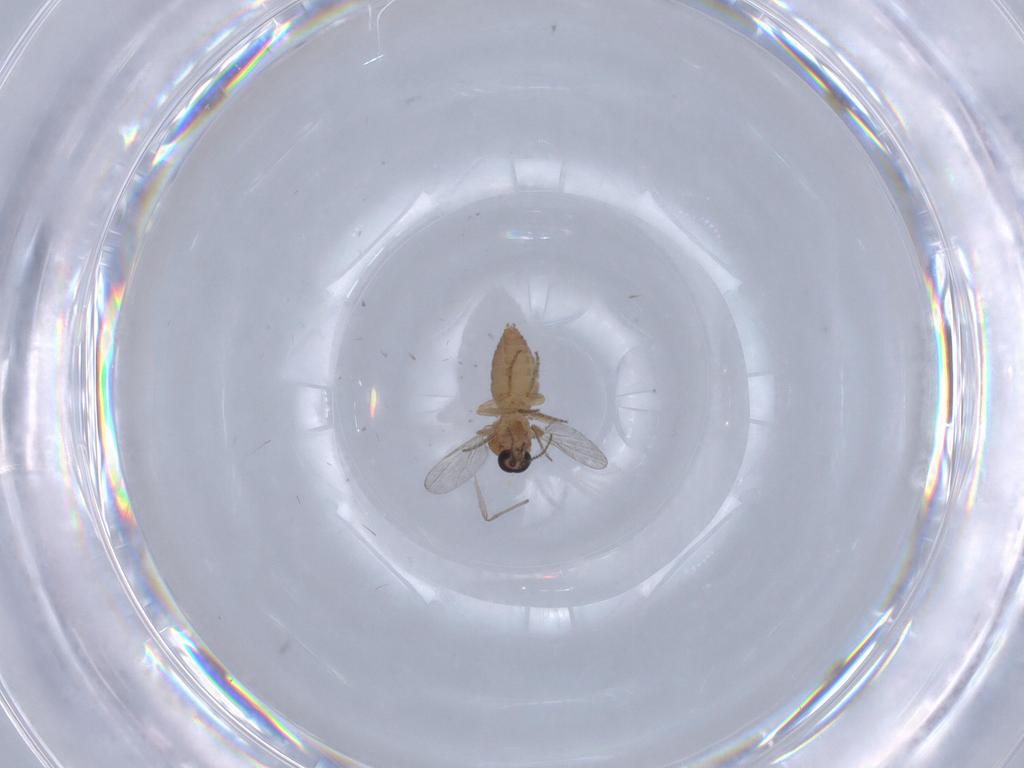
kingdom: Animalia
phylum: Arthropoda
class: Insecta
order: Diptera
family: Ceratopogonidae
